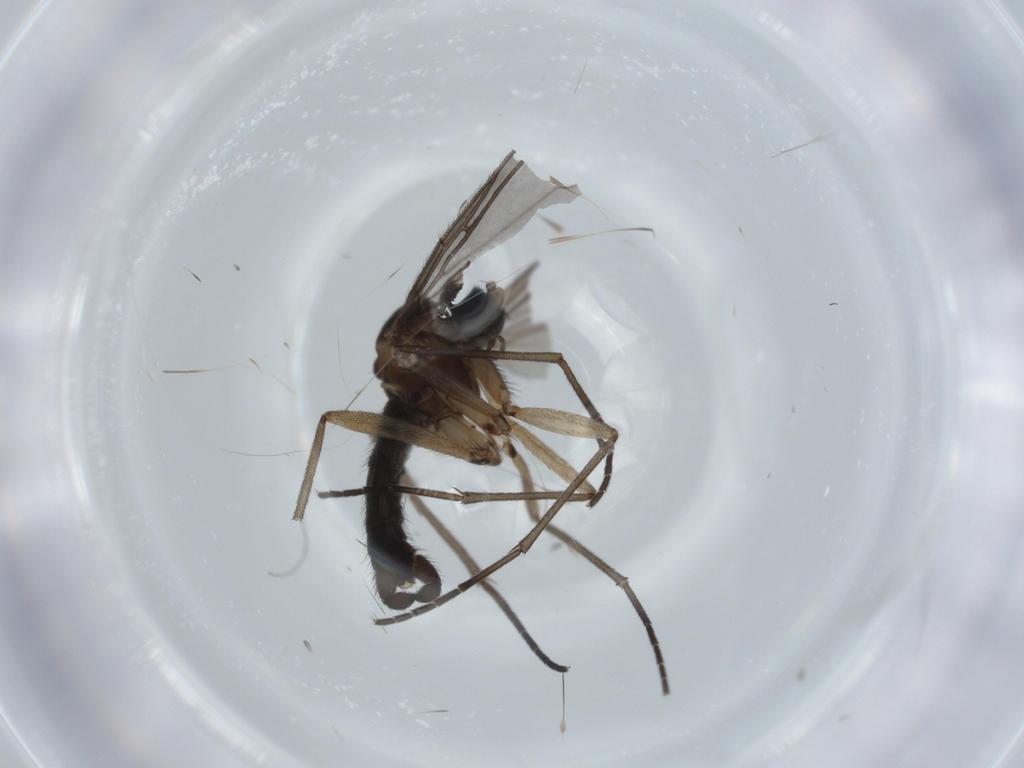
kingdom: Animalia
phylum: Arthropoda
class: Insecta
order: Diptera
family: Sciaridae
